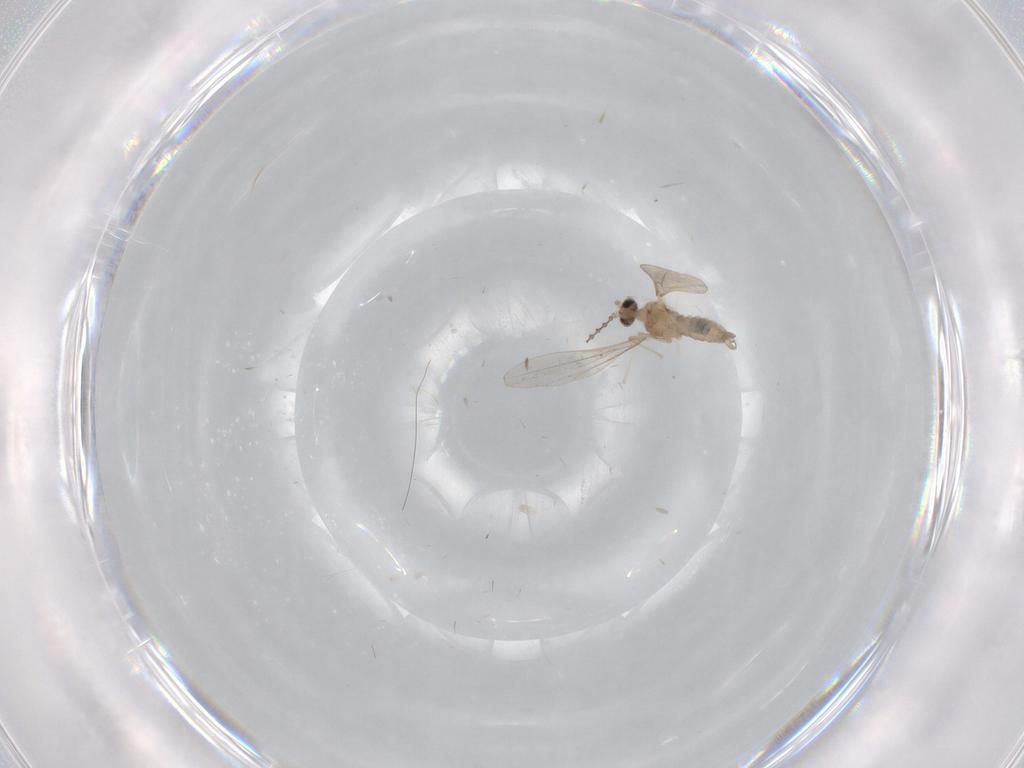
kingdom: Animalia
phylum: Arthropoda
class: Insecta
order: Diptera
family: Cecidomyiidae
